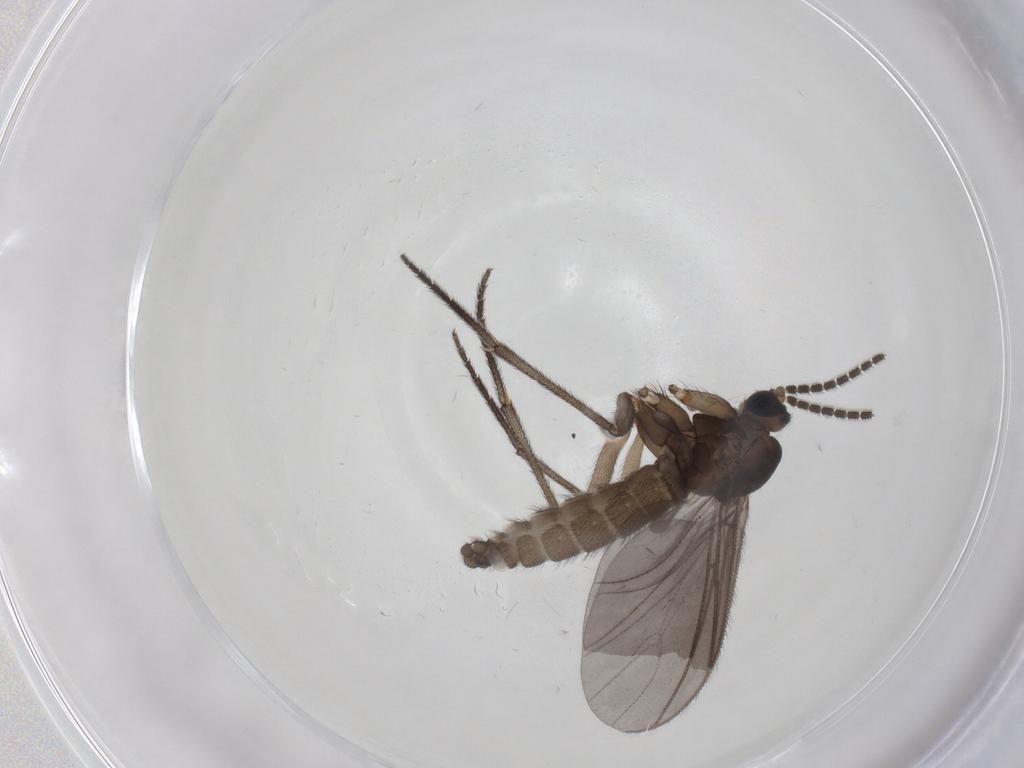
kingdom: Animalia
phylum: Arthropoda
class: Insecta
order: Diptera
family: Sciaridae
